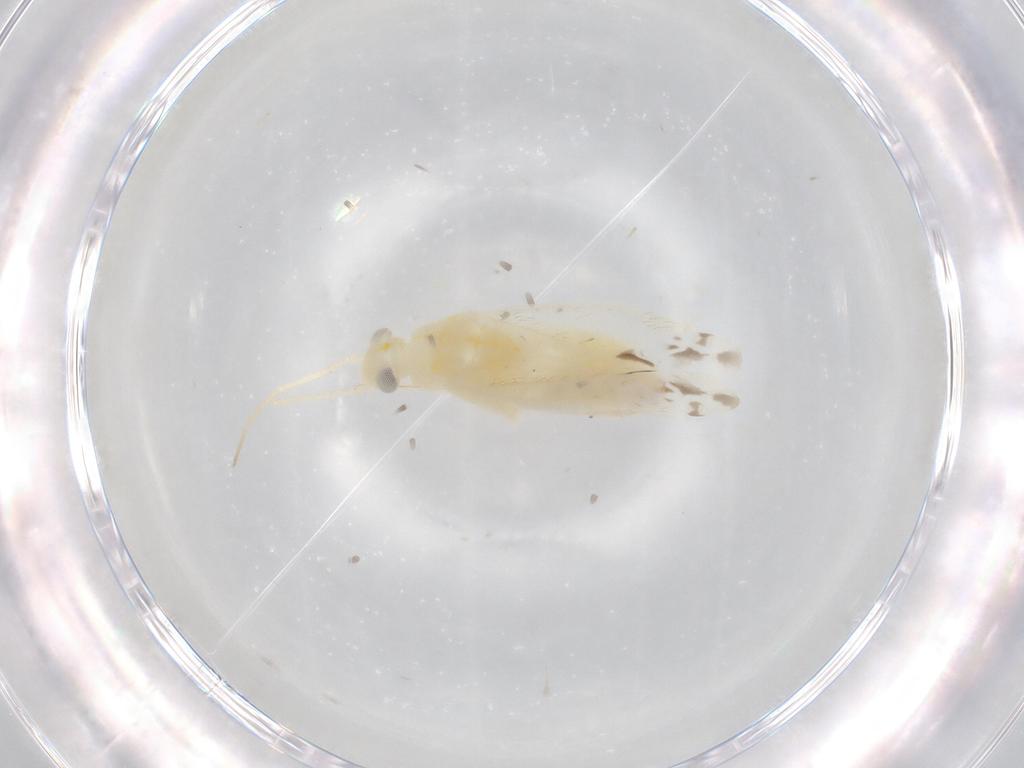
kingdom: Animalia
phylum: Arthropoda
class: Insecta
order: Hemiptera
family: Miridae
